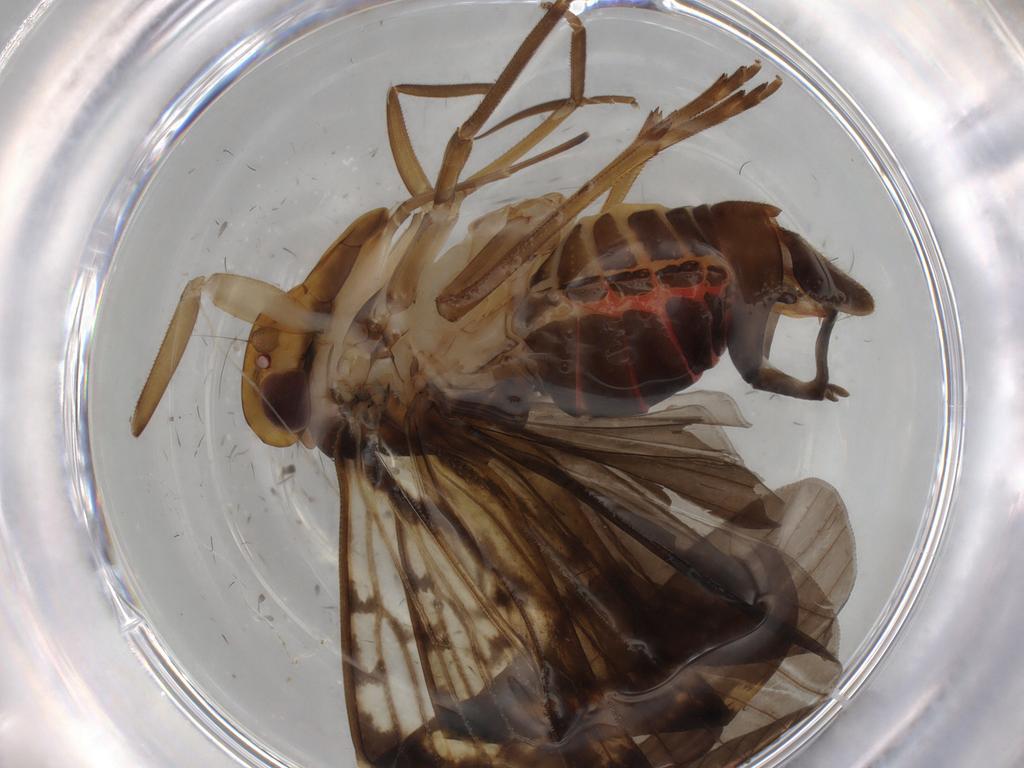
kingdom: Animalia
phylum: Arthropoda
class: Insecta
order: Hemiptera
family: Cixiidae
